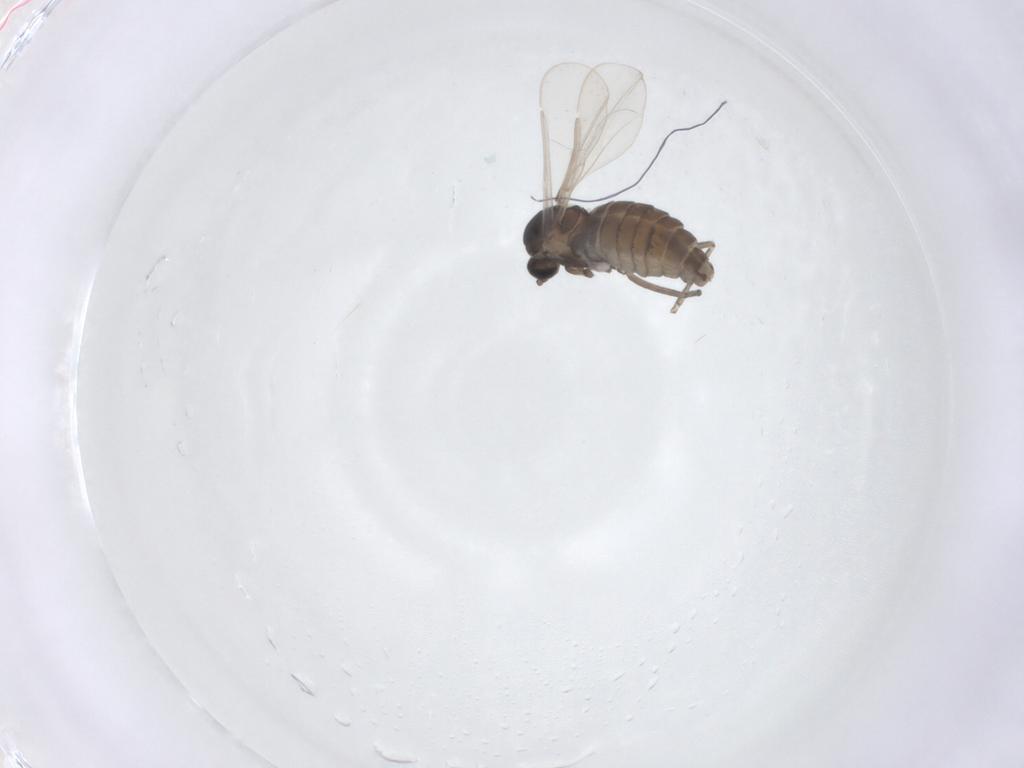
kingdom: Animalia
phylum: Arthropoda
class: Insecta
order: Diptera
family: Cecidomyiidae
